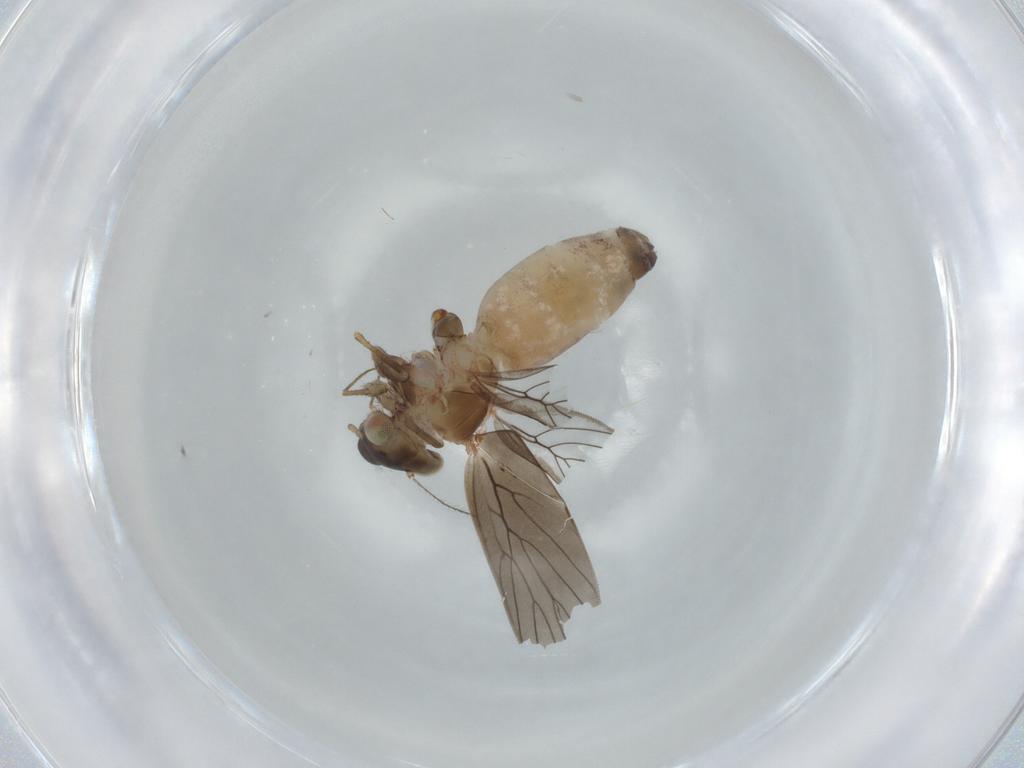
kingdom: Animalia
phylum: Arthropoda
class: Insecta
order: Psocodea
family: Lepidopsocidae
